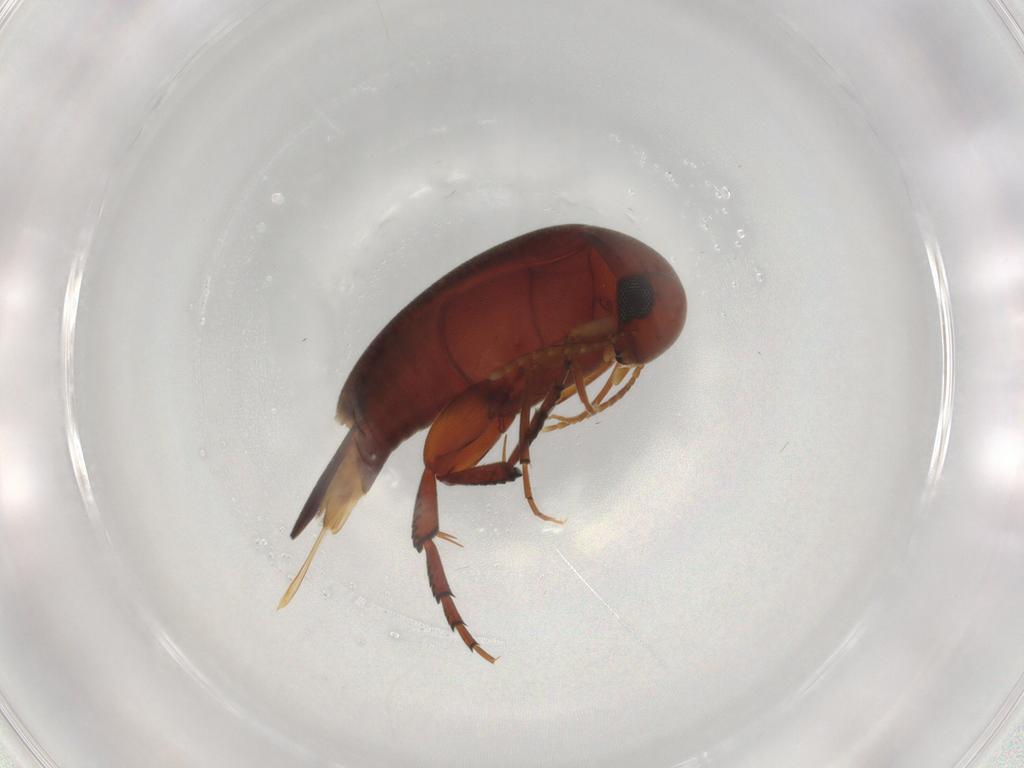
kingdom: Animalia
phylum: Arthropoda
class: Insecta
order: Coleoptera
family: Mordellidae
